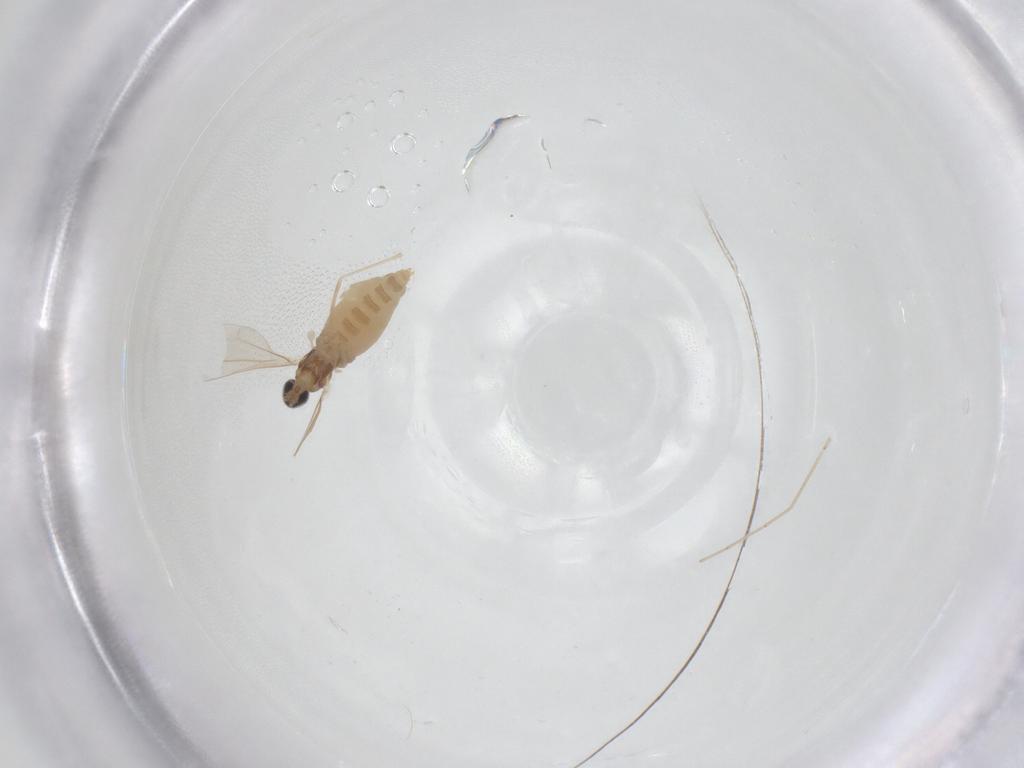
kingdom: Animalia
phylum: Arthropoda
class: Insecta
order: Diptera
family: Cecidomyiidae
